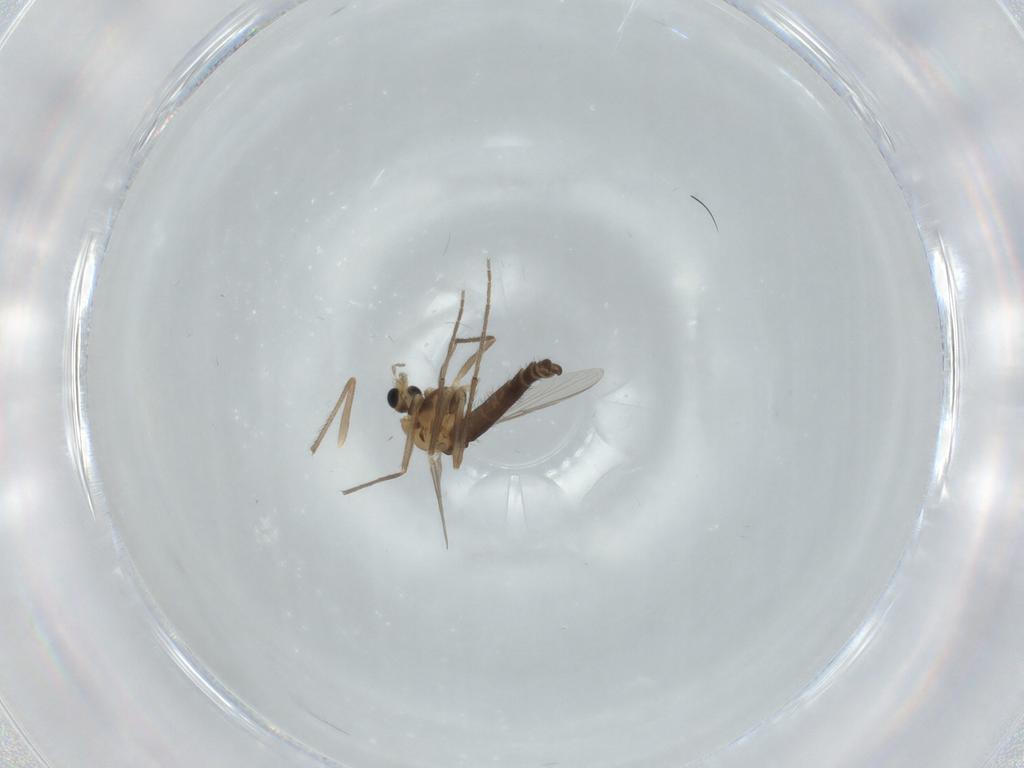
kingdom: Animalia
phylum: Arthropoda
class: Insecta
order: Diptera
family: Chironomidae
